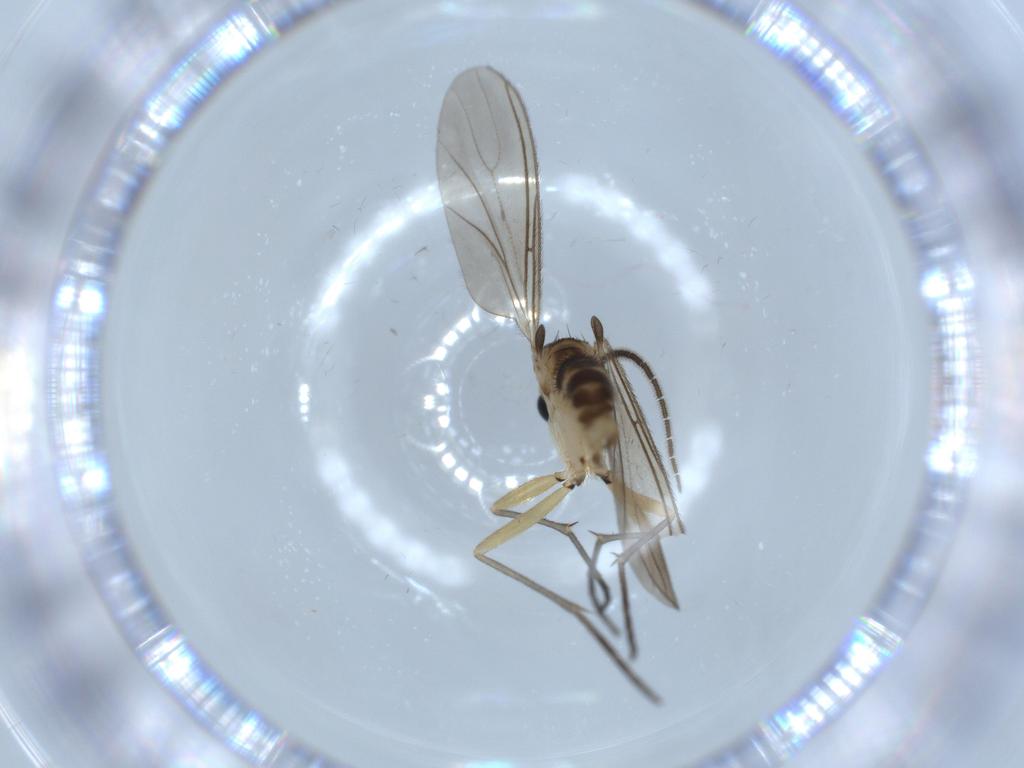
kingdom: Animalia
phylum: Arthropoda
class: Insecta
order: Diptera
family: Sciaridae
